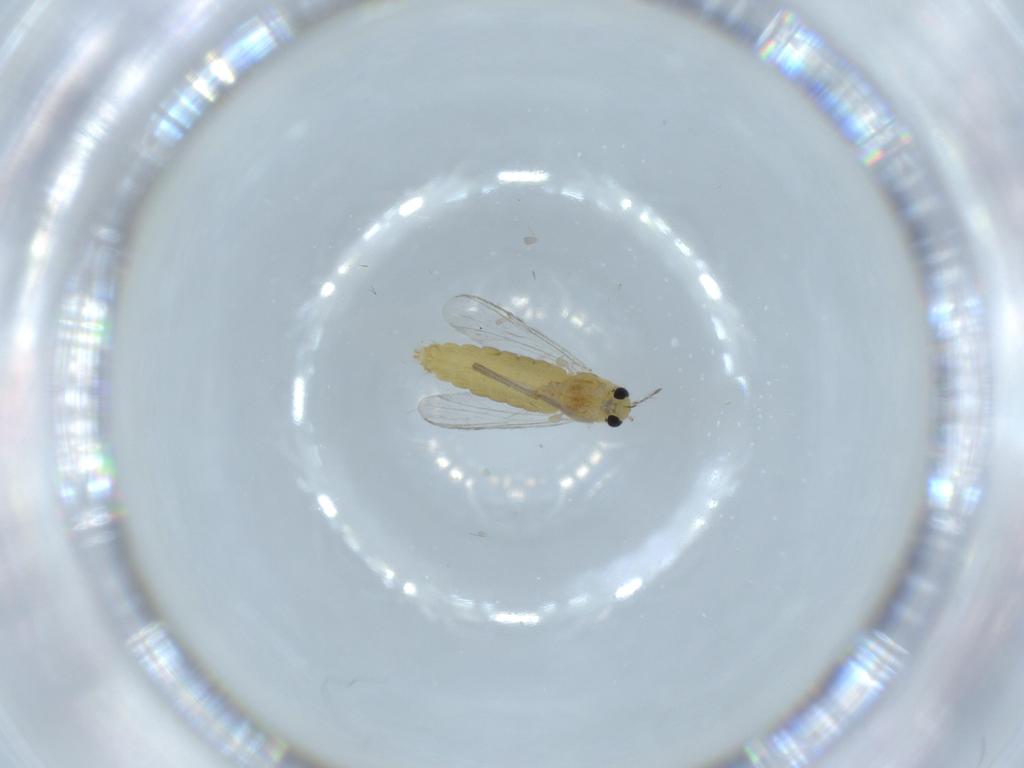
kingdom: Animalia
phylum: Arthropoda
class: Insecta
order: Diptera
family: Chironomidae
